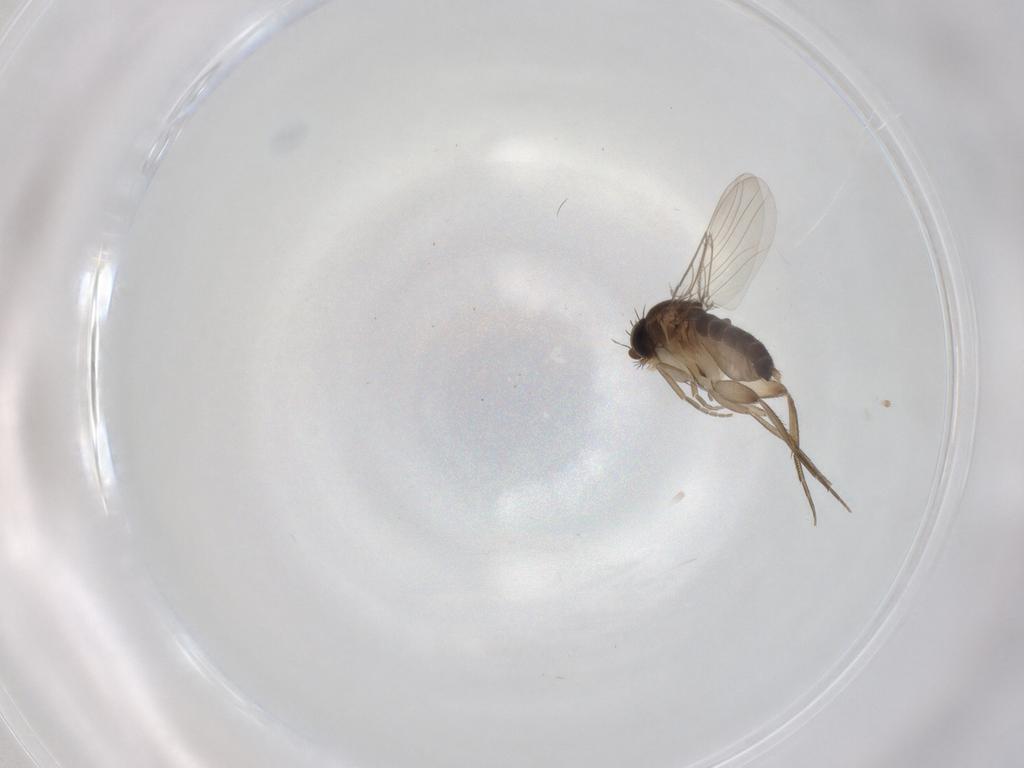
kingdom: Animalia
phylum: Arthropoda
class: Insecta
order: Diptera
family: Phoridae
